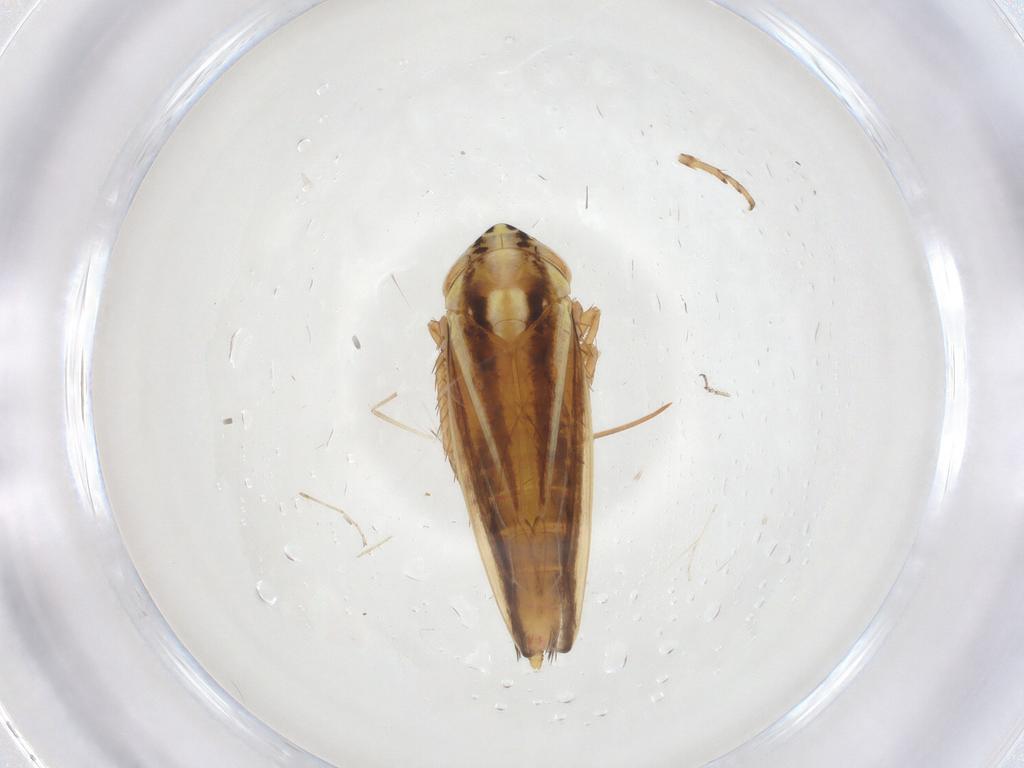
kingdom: Animalia
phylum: Arthropoda
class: Insecta
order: Hemiptera
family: Cicadellidae
